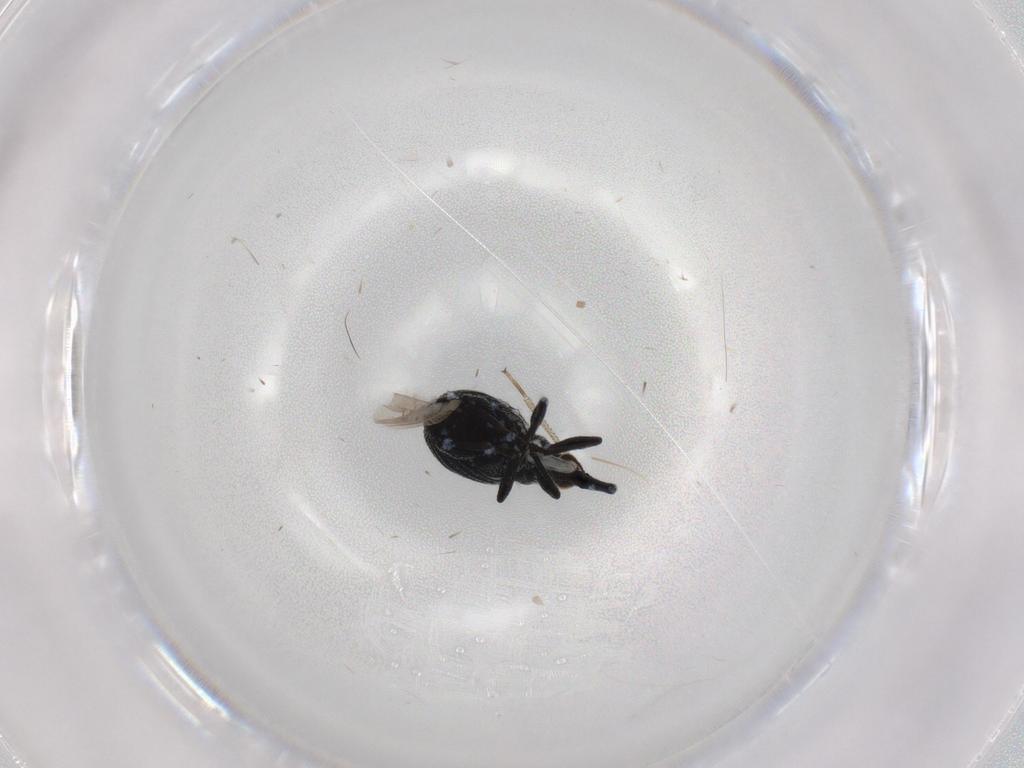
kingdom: Animalia
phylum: Arthropoda
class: Insecta
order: Coleoptera
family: Brentidae
